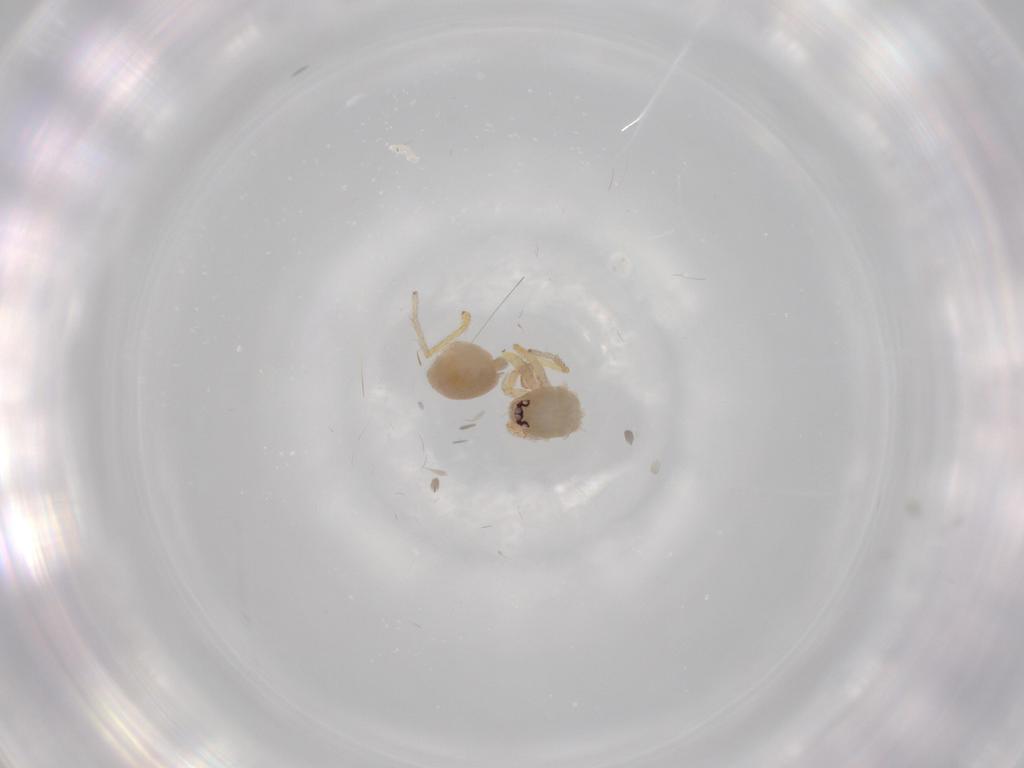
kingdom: Animalia
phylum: Arthropoda
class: Arachnida
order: Araneae
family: Oonopidae
